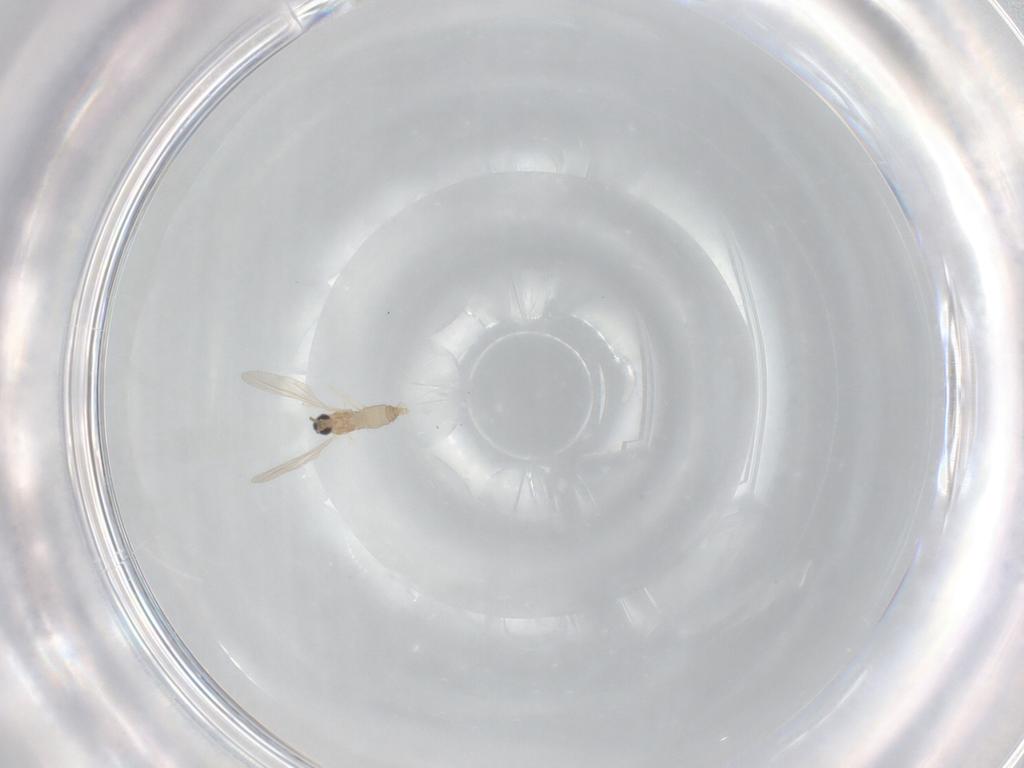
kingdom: Animalia
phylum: Arthropoda
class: Insecta
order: Diptera
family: Cecidomyiidae
